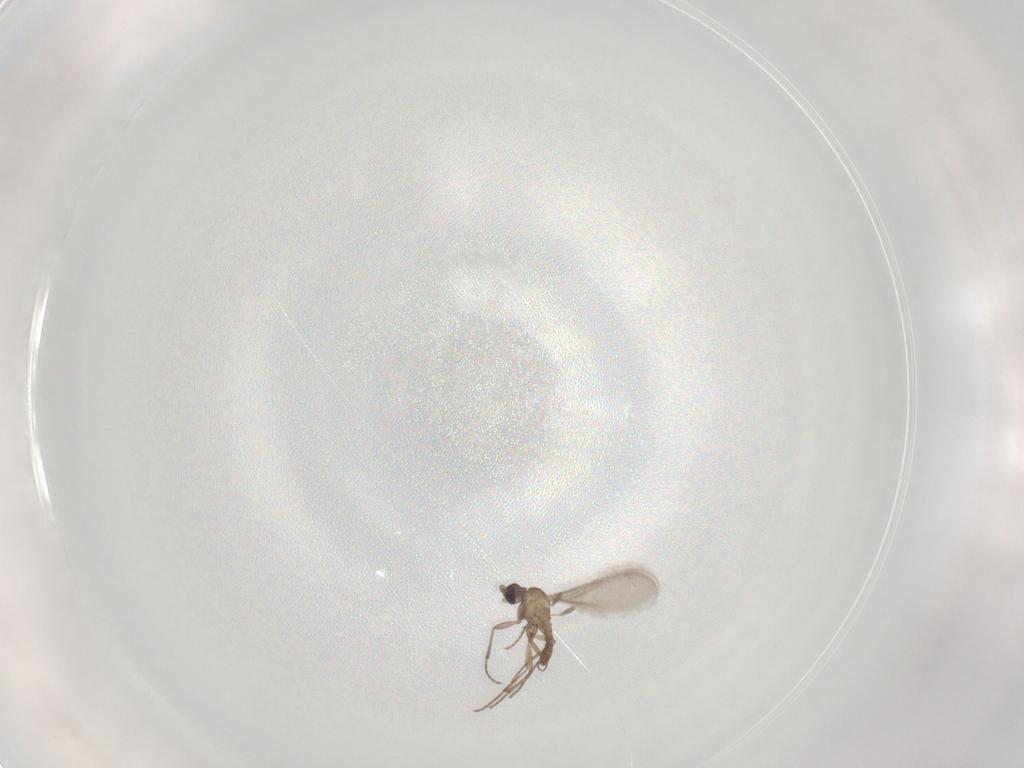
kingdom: Animalia
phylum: Arthropoda
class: Insecta
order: Diptera
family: Sciaridae
